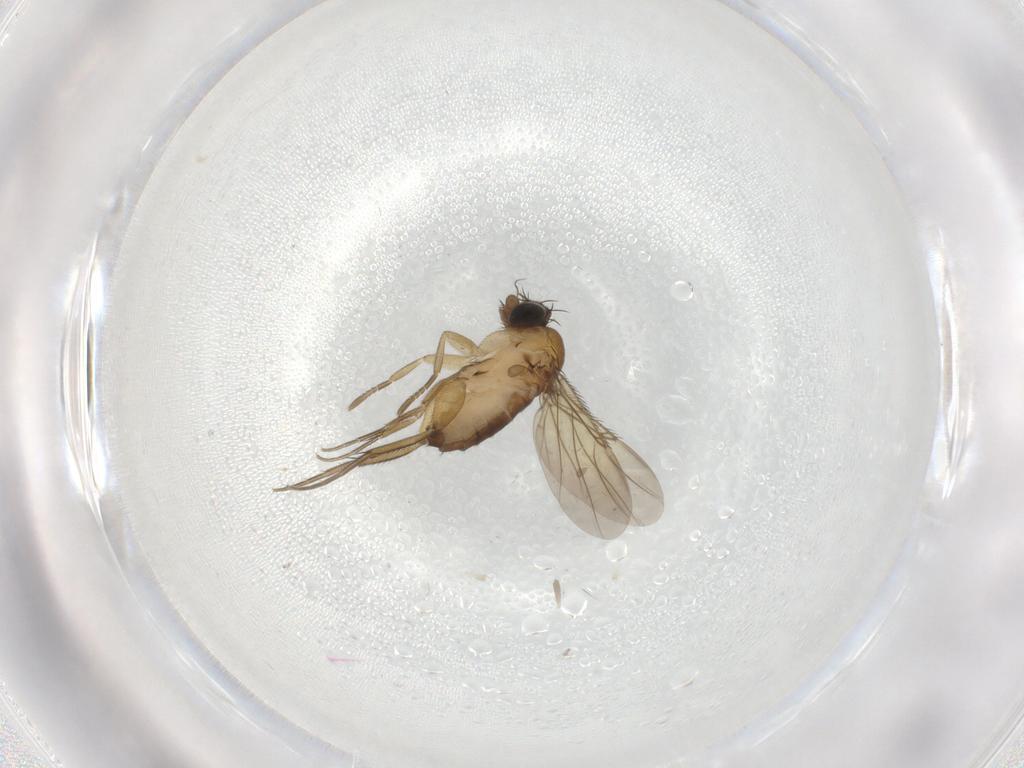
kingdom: Animalia
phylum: Arthropoda
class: Insecta
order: Diptera
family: Phoridae
